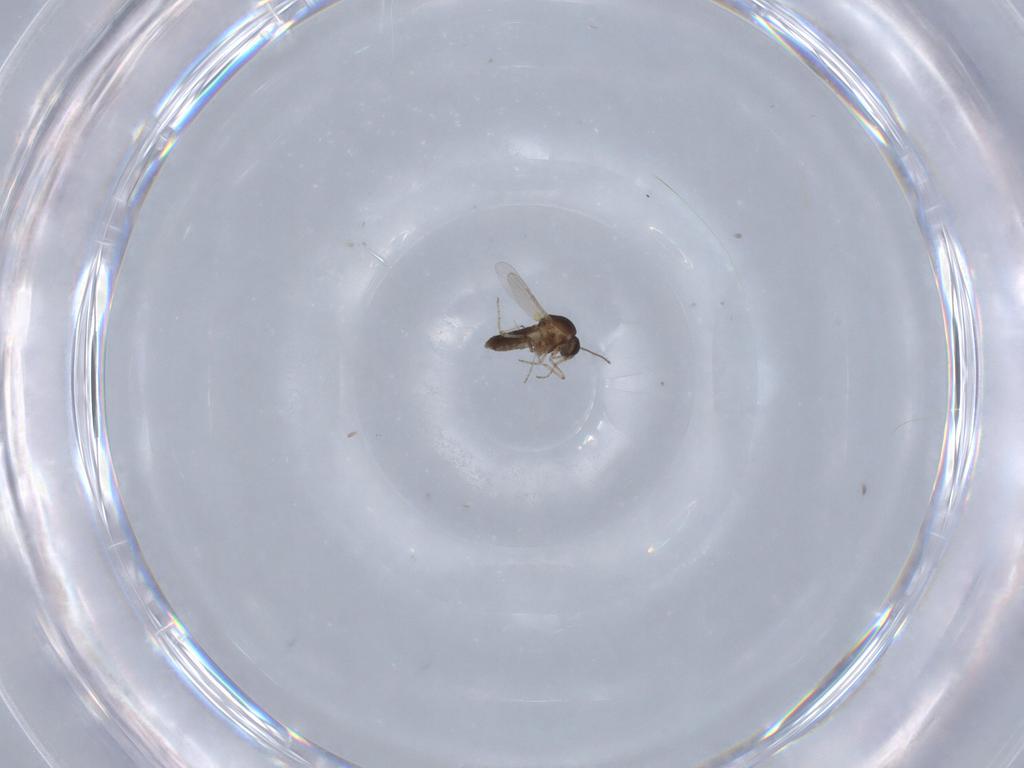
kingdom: Animalia
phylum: Arthropoda
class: Insecta
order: Diptera
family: Ceratopogonidae
